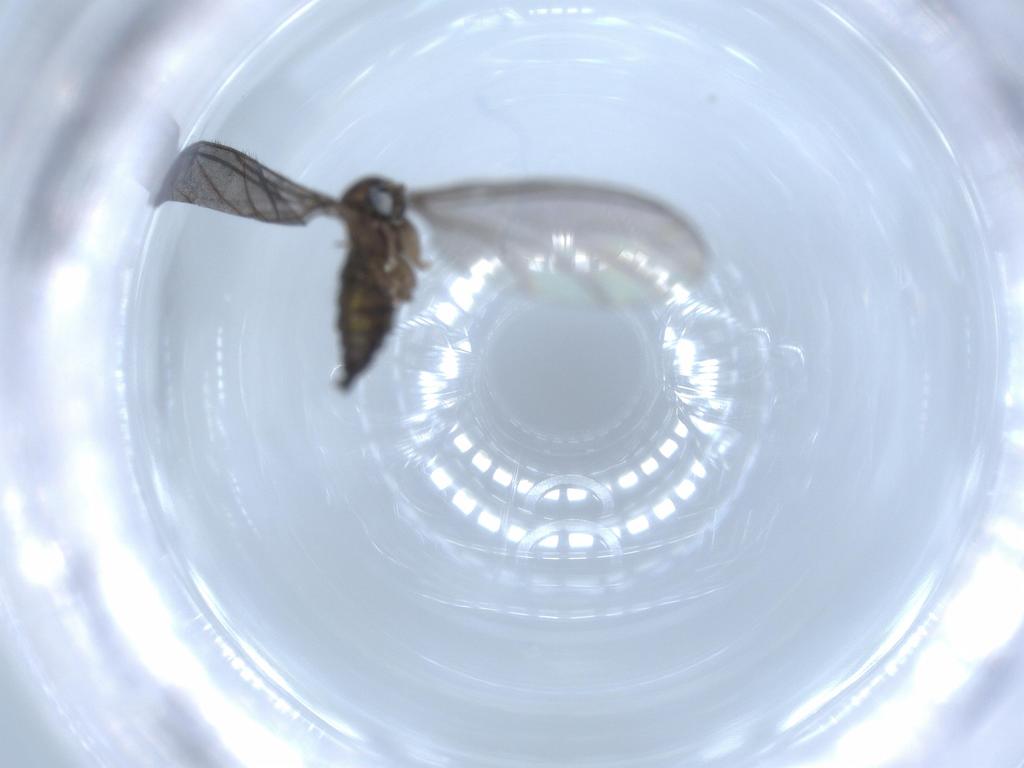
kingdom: Animalia
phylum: Arthropoda
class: Insecta
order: Diptera
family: Sciaridae
